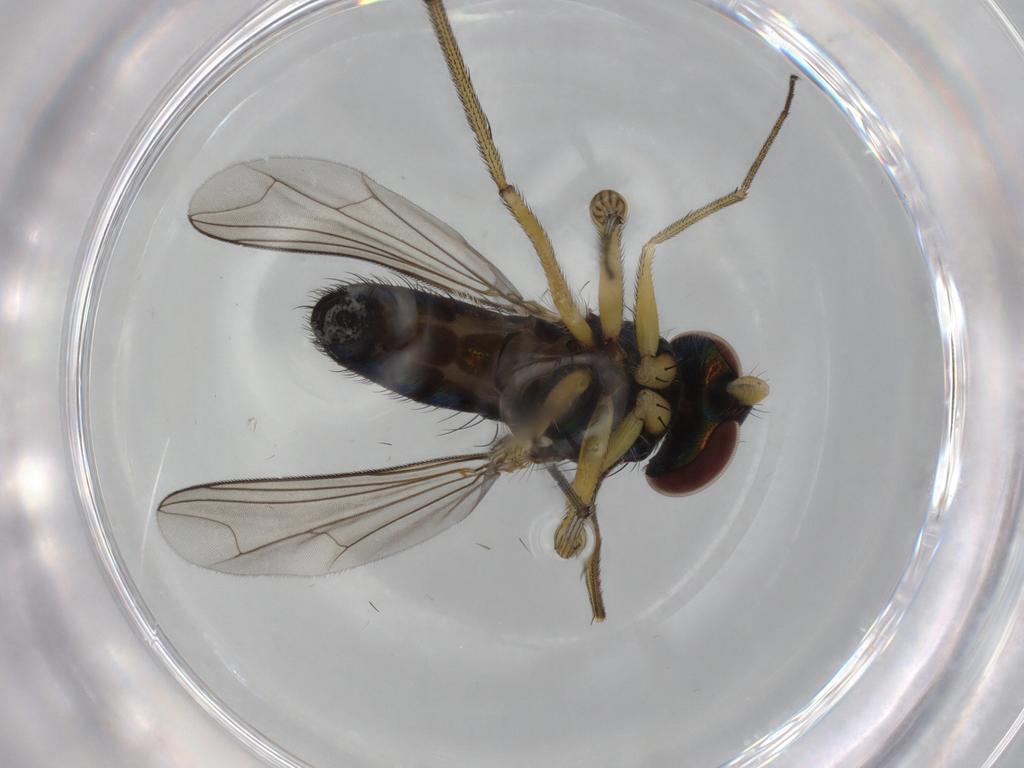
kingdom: Animalia
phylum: Arthropoda
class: Insecta
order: Diptera
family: Dolichopodidae
